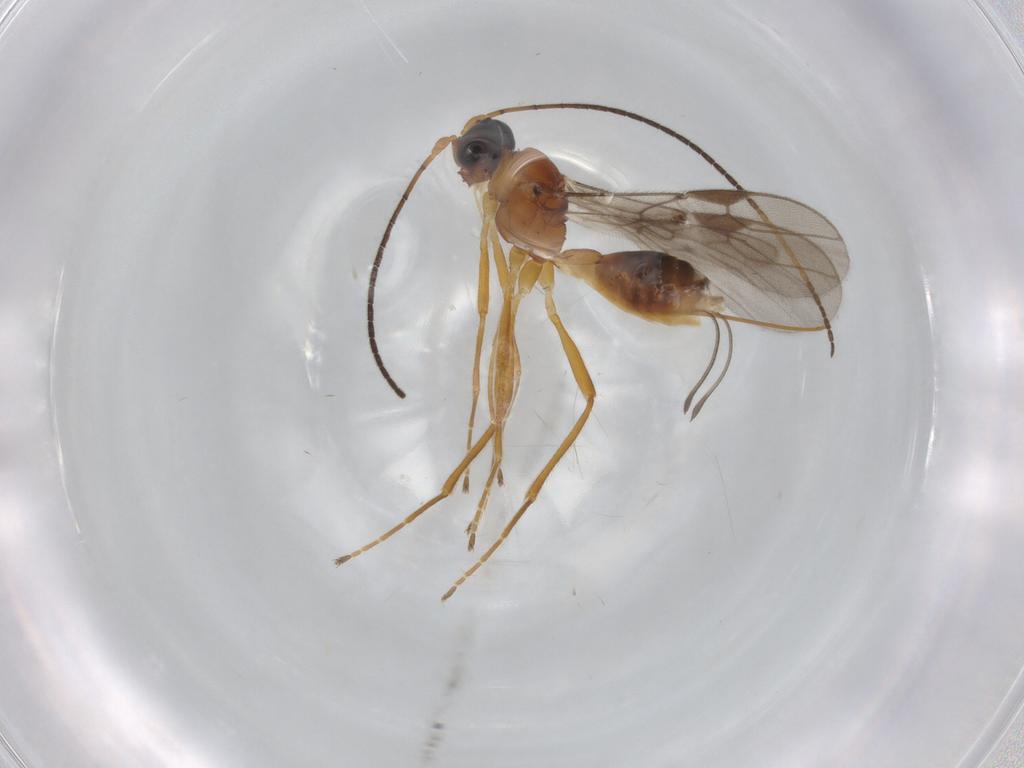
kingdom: Animalia
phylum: Arthropoda
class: Insecta
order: Hymenoptera
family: Braconidae
